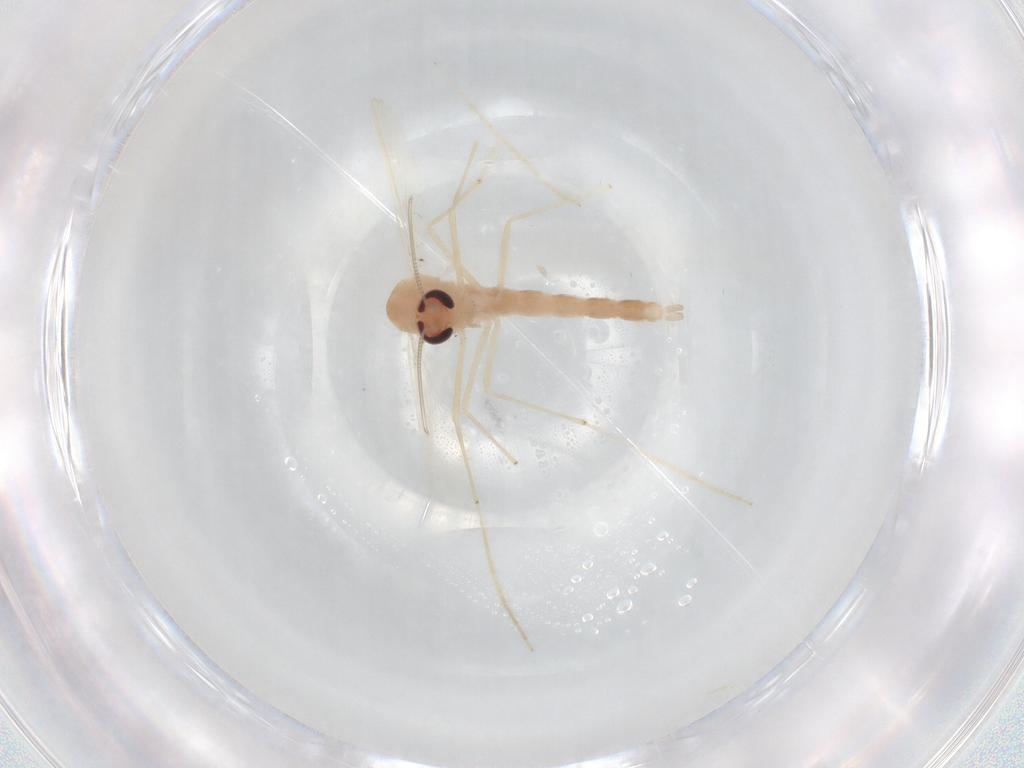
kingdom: Animalia
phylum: Arthropoda
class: Insecta
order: Diptera
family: Chironomidae
